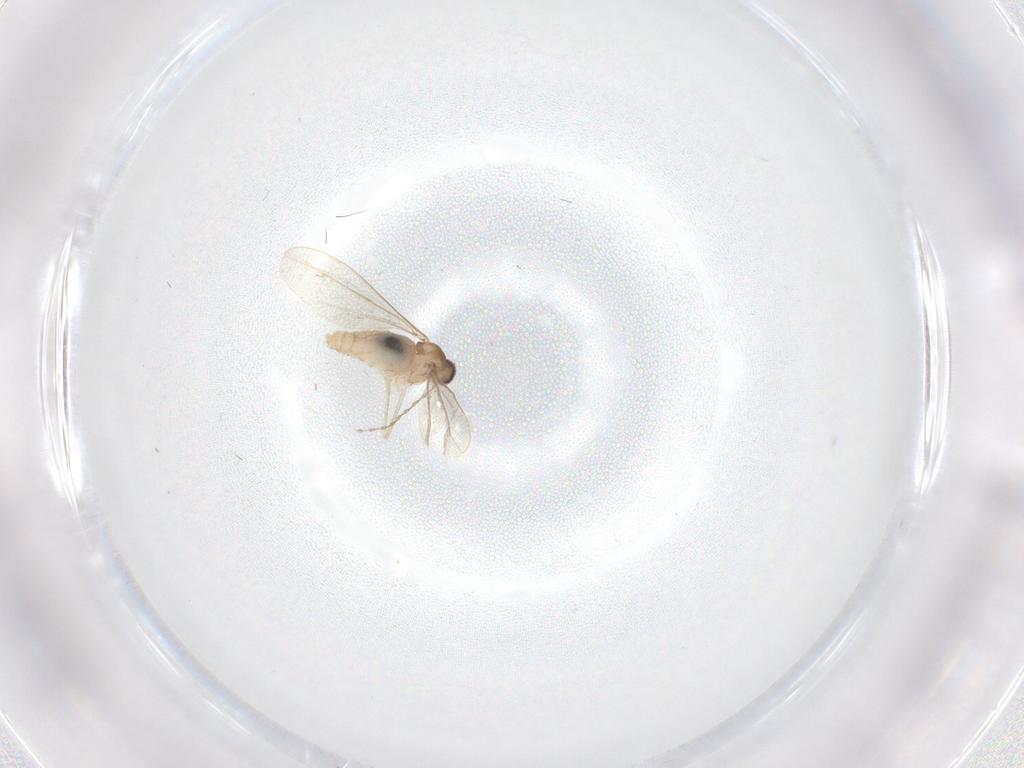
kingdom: Animalia
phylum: Arthropoda
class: Insecta
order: Diptera
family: Cecidomyiidae
